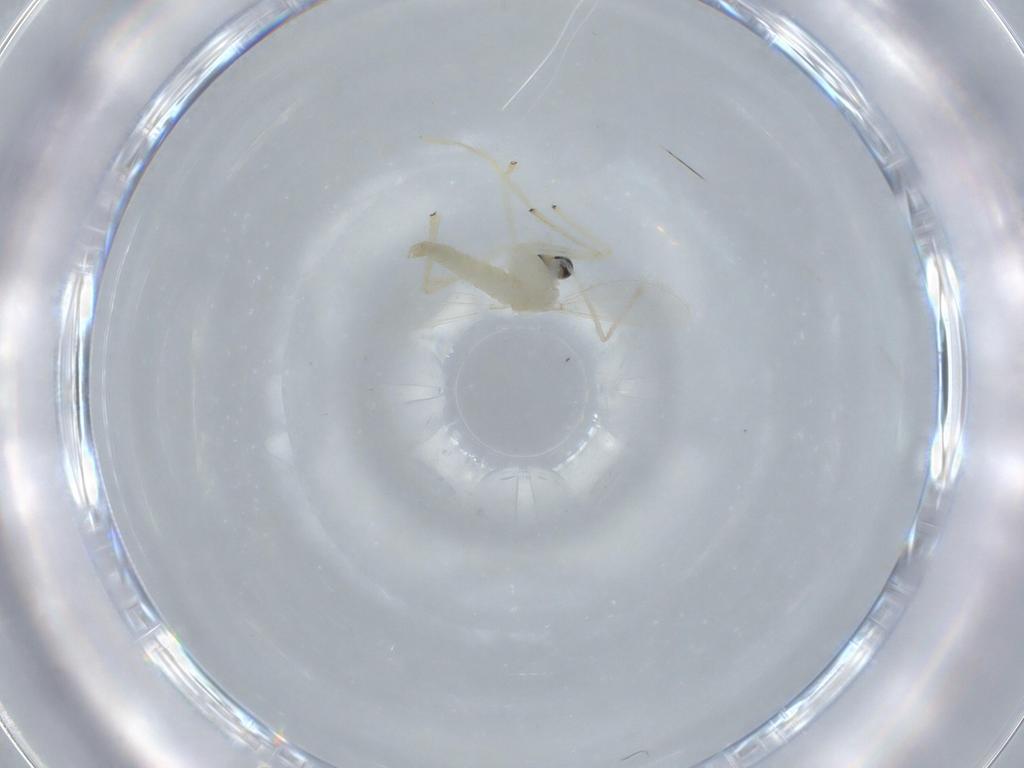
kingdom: Animalia
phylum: Arthropoda
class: Insecta
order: Diptera
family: Chironomidae
